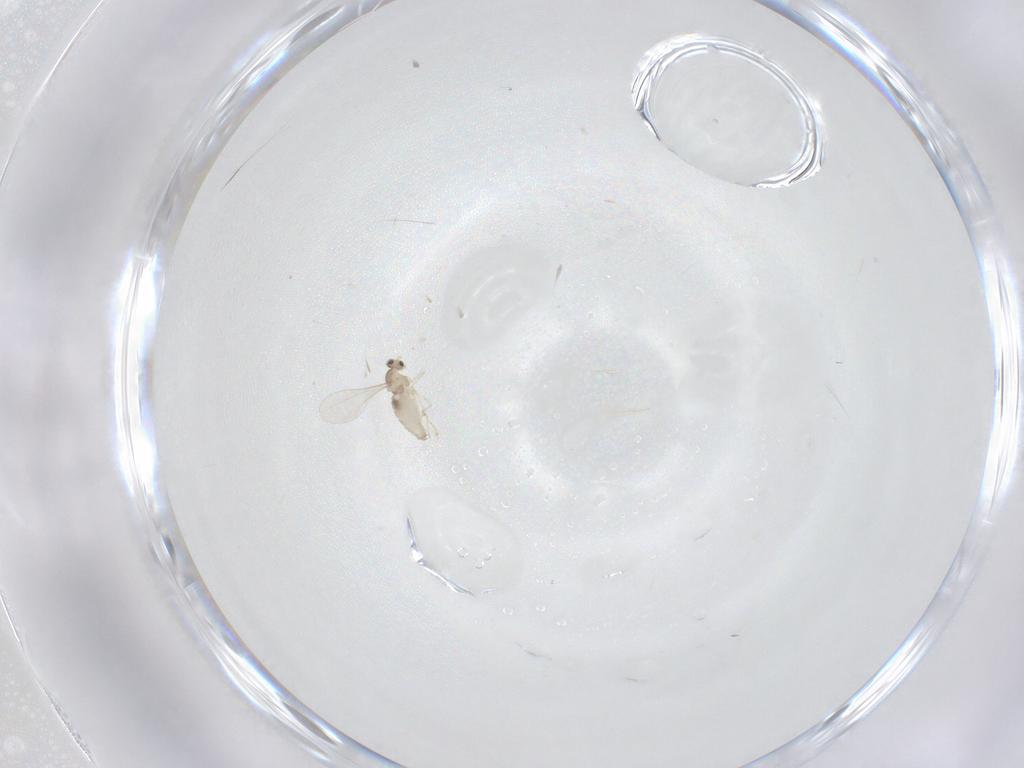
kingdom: Animalia
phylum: Arthropoda
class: Insecta
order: Diptera
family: Cecidomyiidae
